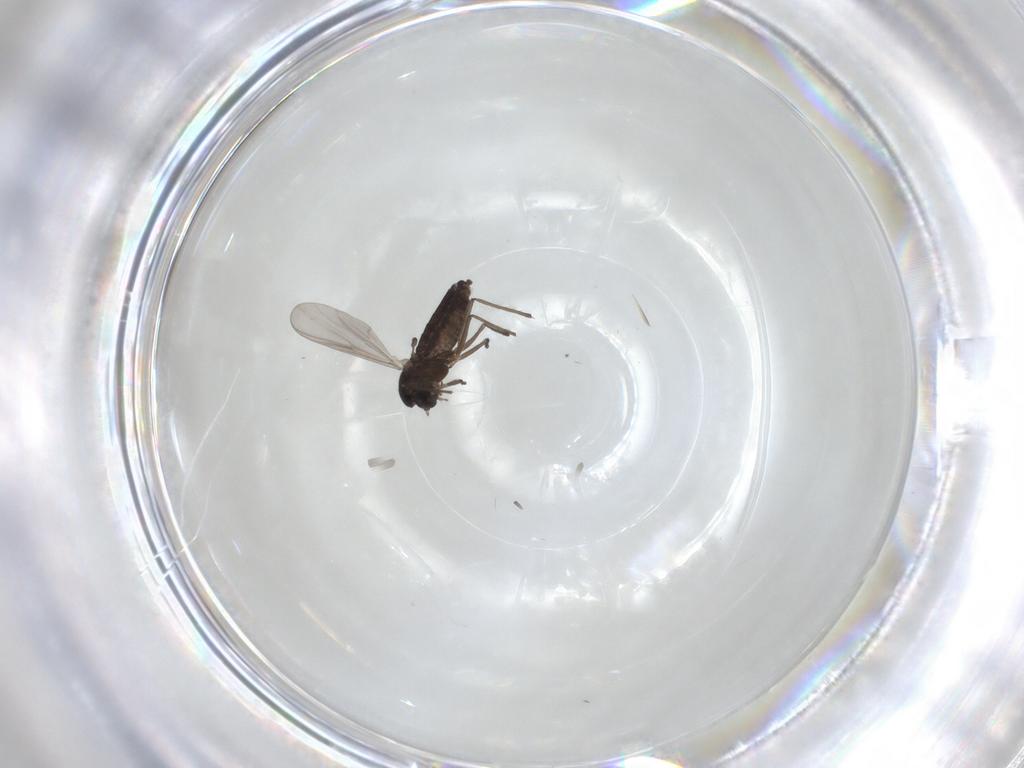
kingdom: Animalia
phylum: Arthropoda
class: Insecta
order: Diptera
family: Chironomidae
